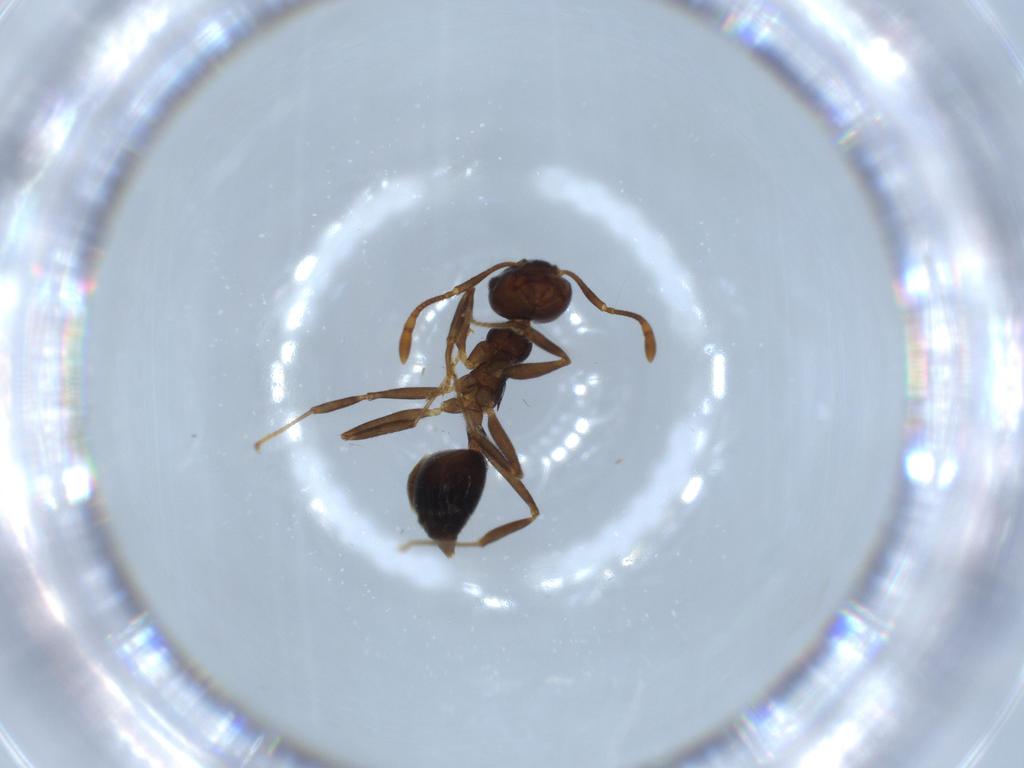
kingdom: Animalia
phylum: Arthropoda
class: Insecta
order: Hymenoptera
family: Formicidae
